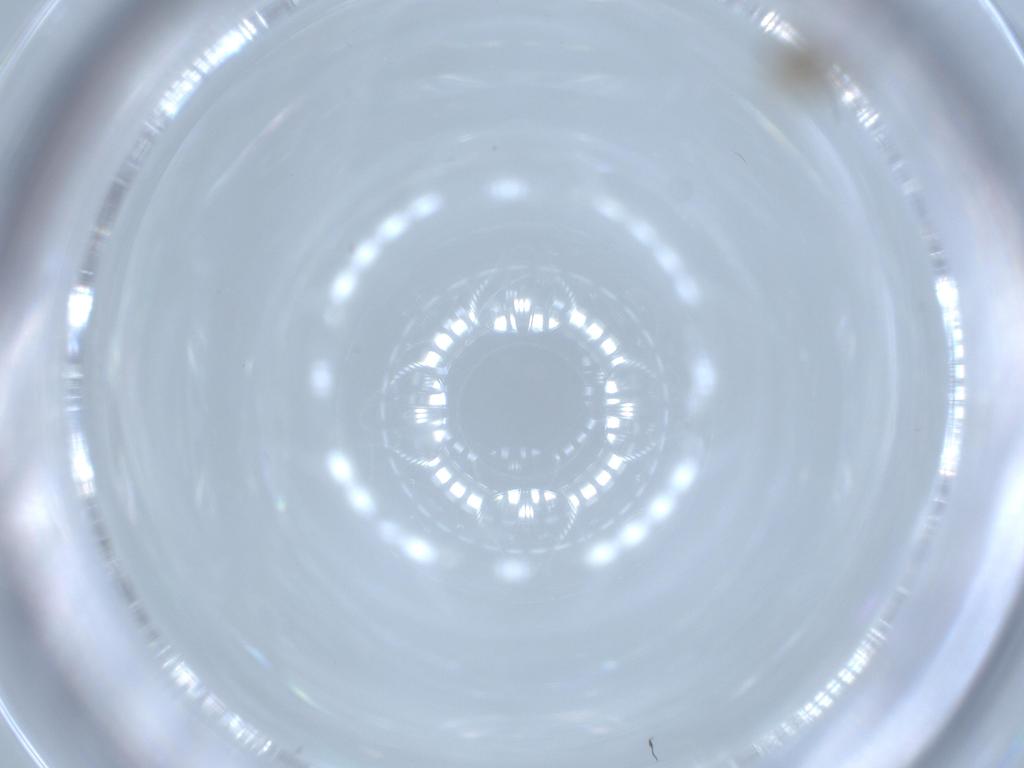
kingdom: Animalia
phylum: Arthropoda
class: Insecta
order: Diptera
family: Ceratopogonidae
